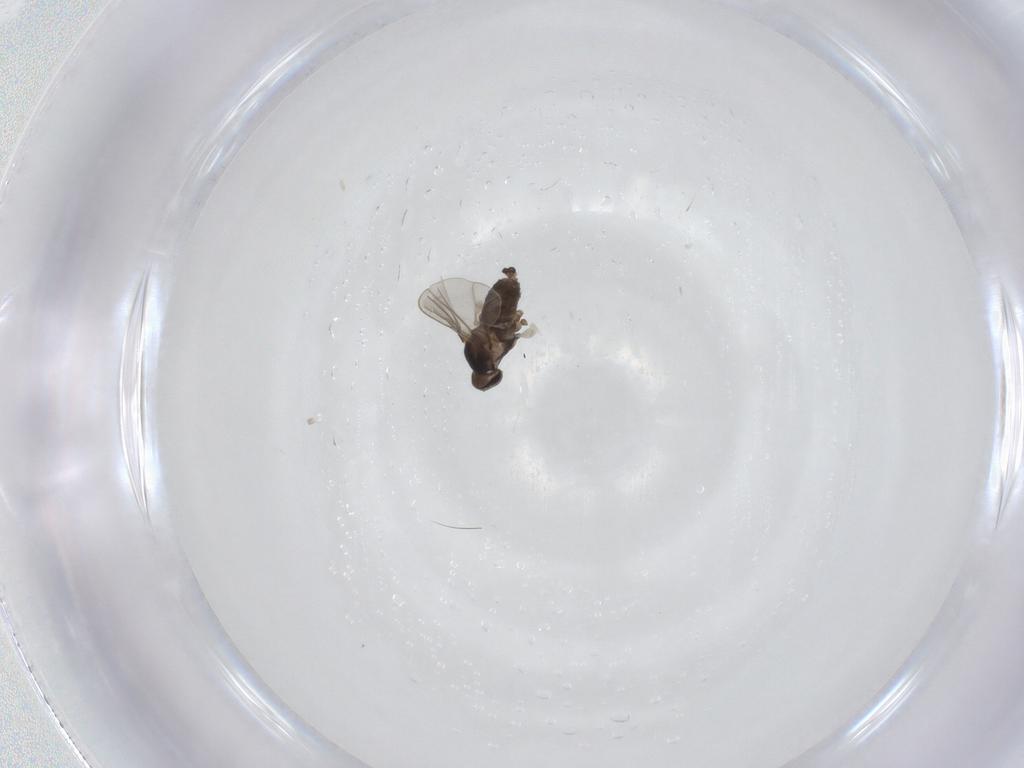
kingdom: Animalia
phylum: Arthropoda
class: Insecta
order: Diptera
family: Cecidomyiidae
